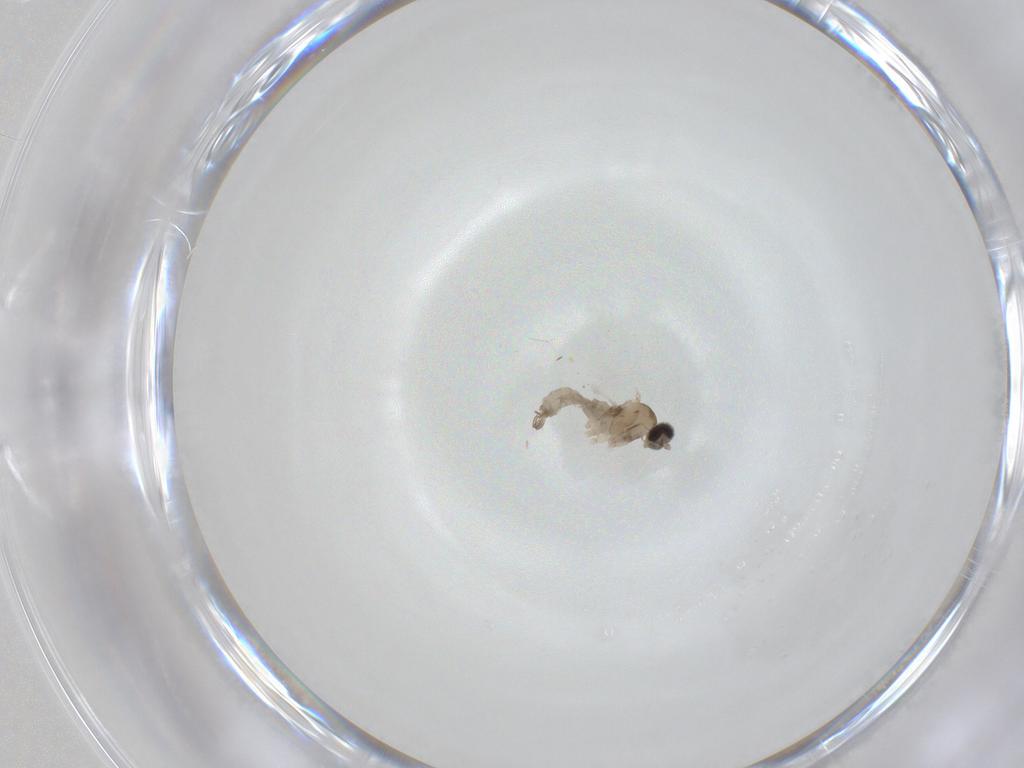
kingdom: Animalia
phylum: Arthropoda
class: Insecta
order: Diptera
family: Cecidomyiidae
